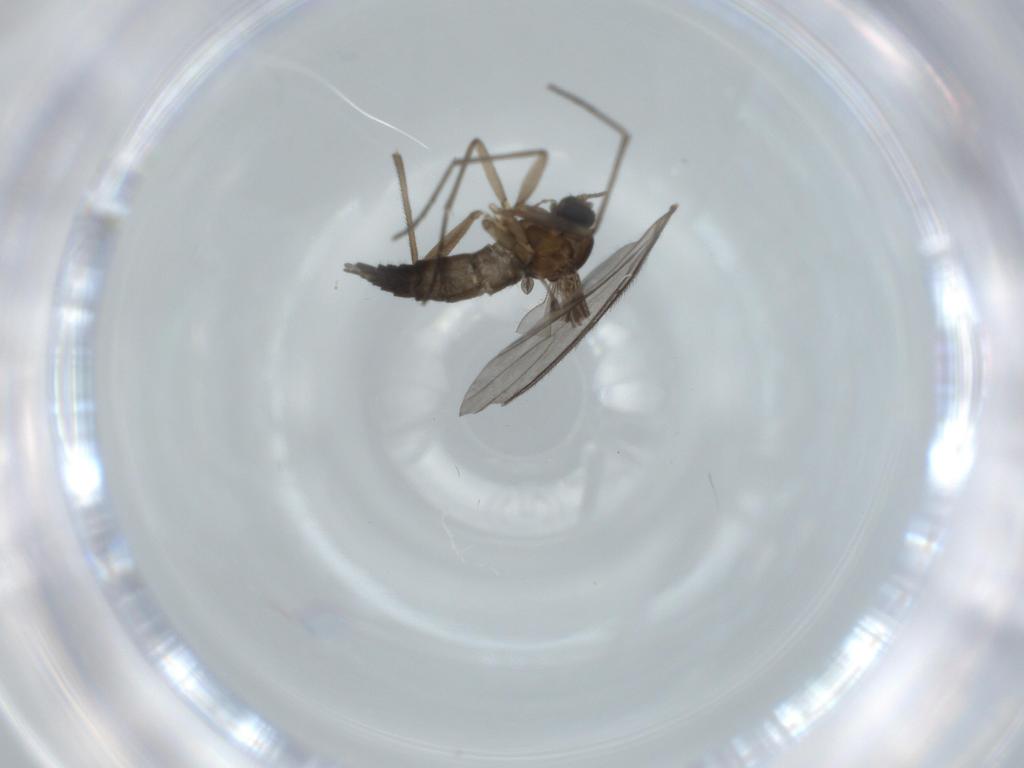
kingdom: Animalia
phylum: Arthropoda
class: Insecta
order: Diptera
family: Sciaridae
